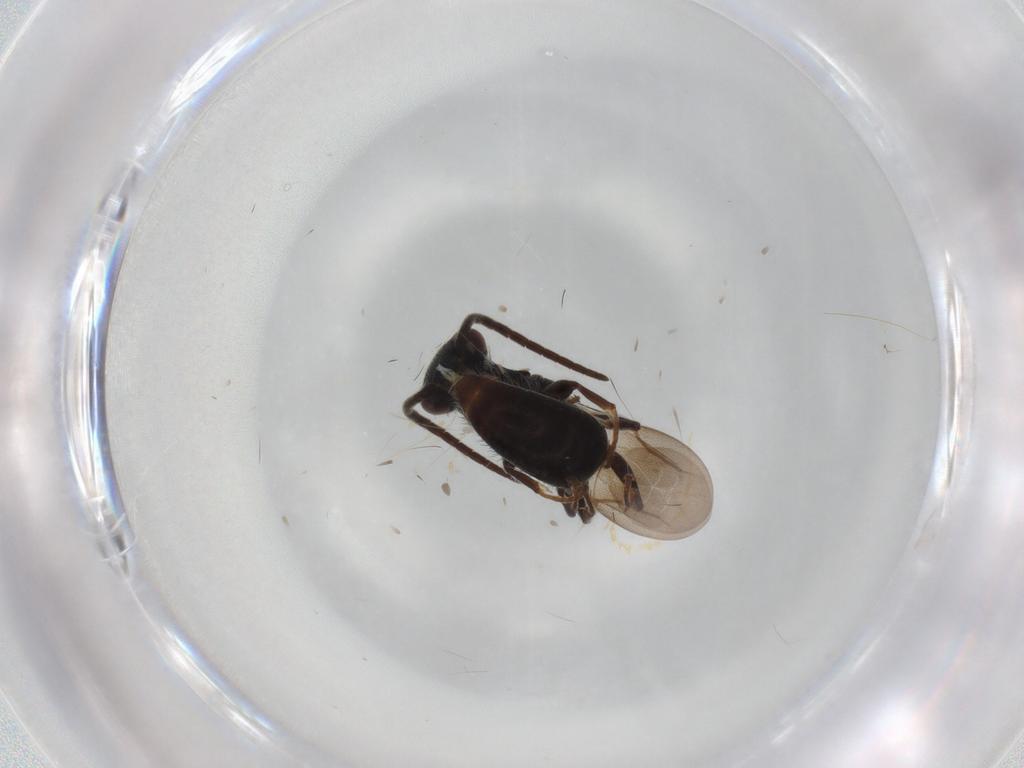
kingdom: Animalia
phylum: Arthropoda
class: Insecta
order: Hymenoptera
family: Bethylidae
